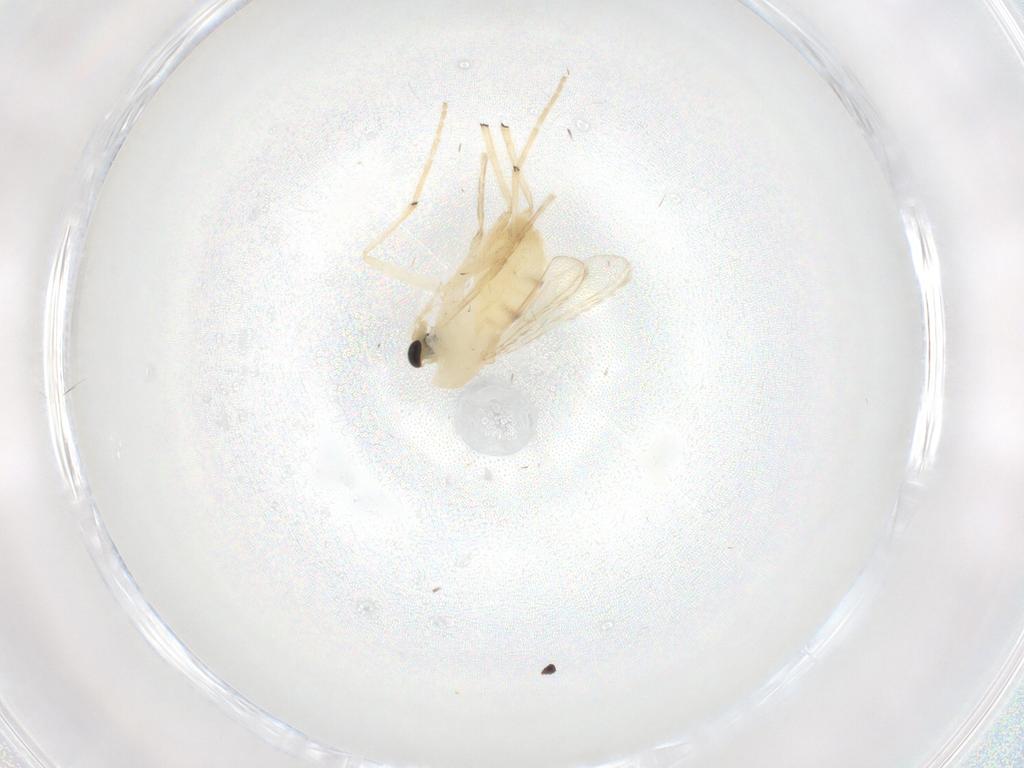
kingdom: Animalia
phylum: Arthropoda
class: Insecta
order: Diptera
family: Chironomidae
